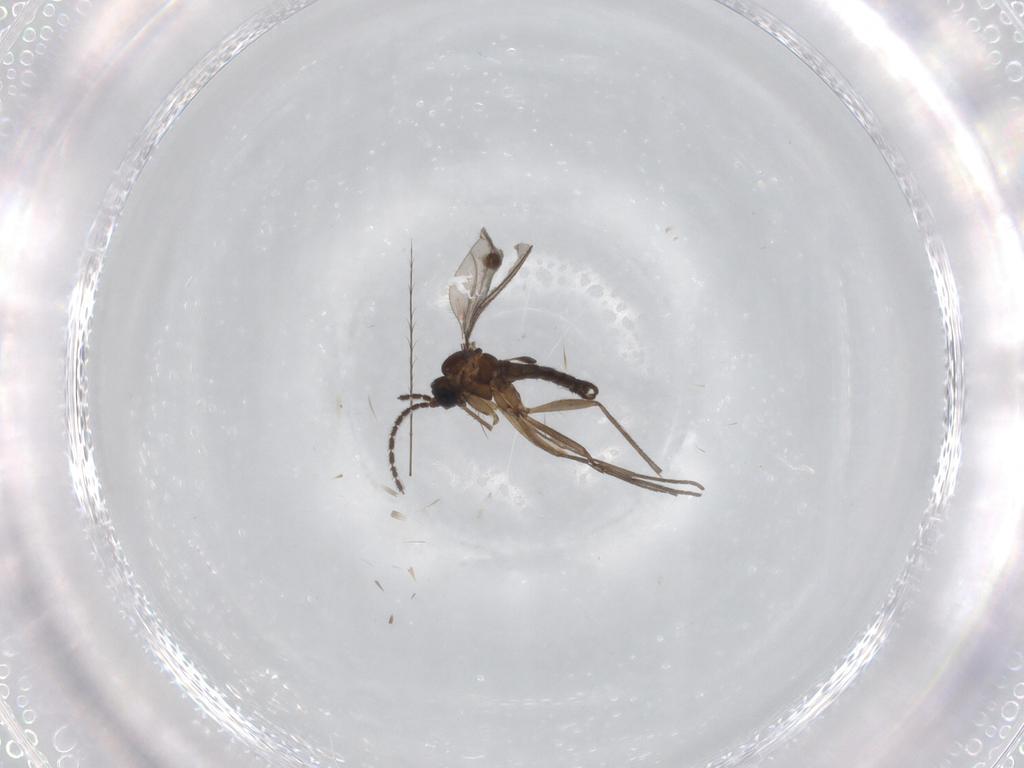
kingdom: Animalia
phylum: Arthropoda
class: Insecta
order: Diptera
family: Sciaridae
